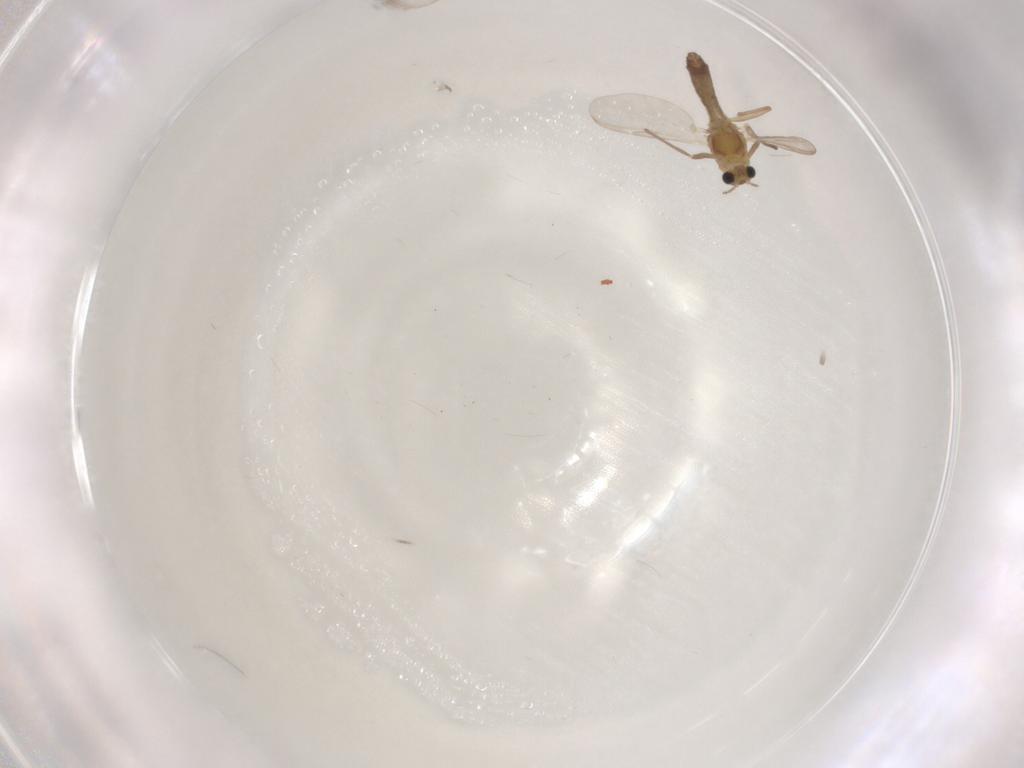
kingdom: Animalia
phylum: Arthropoda
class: Insecta
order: Diptera
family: Chironomidae
